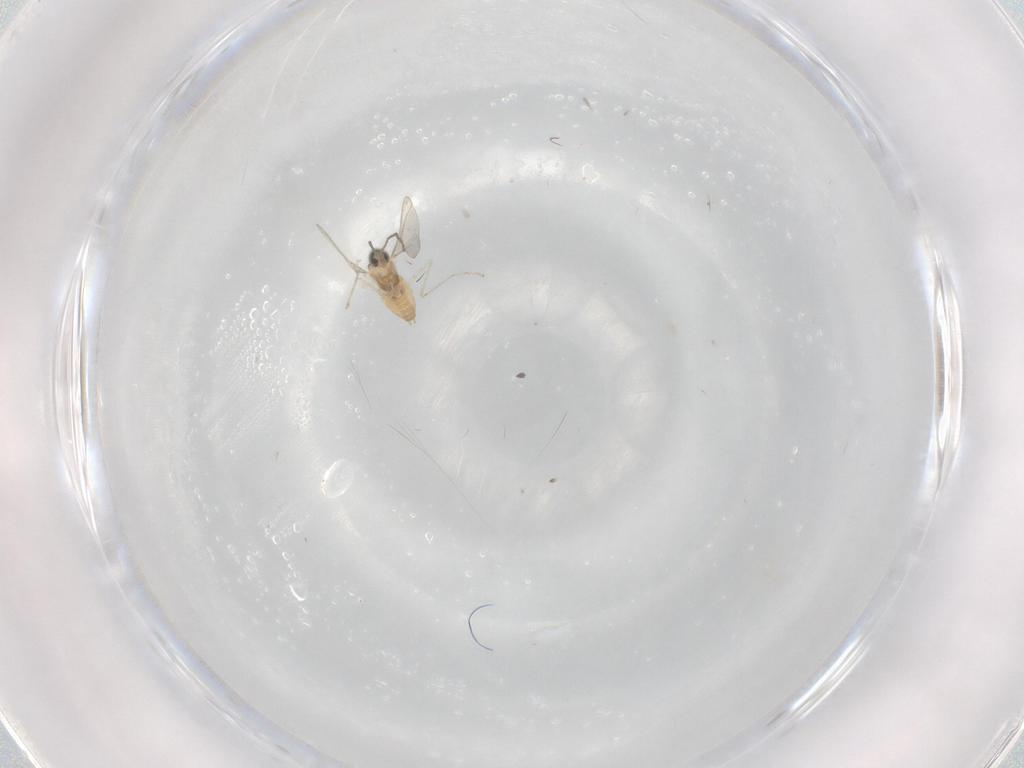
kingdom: Animalia
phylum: Arthropoda
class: Insecta
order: Diptera
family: Cecidomyiidae
